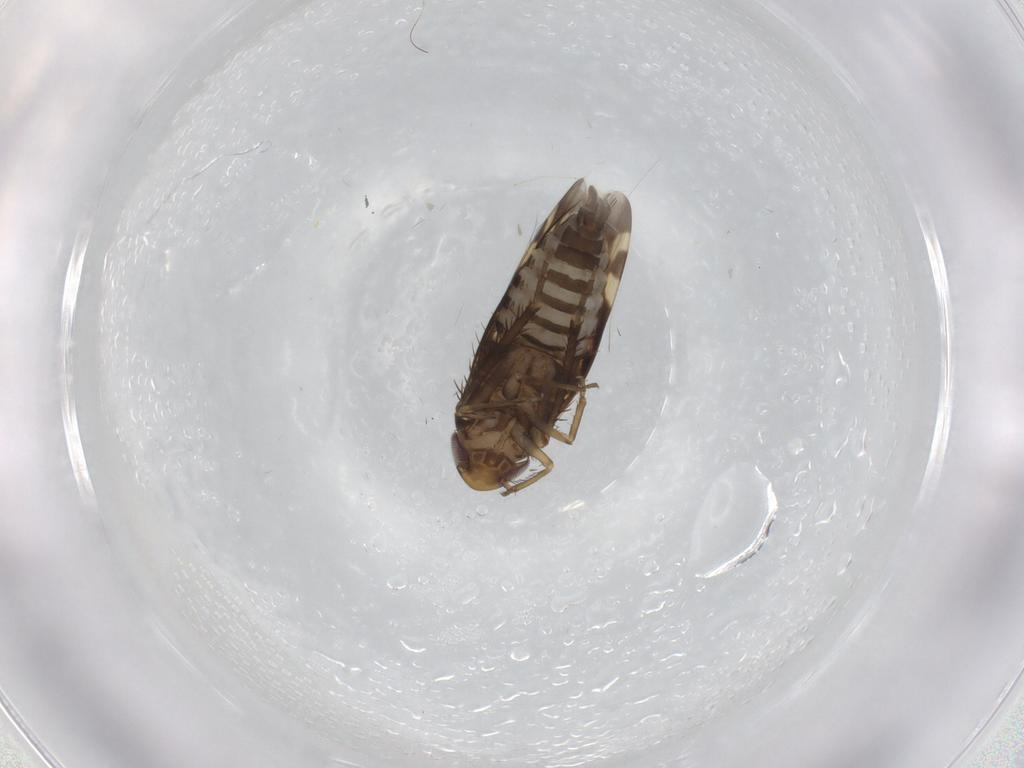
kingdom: Animalia
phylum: Arthropoda
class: Insecta
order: Hemiptera
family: Cicadellidae
